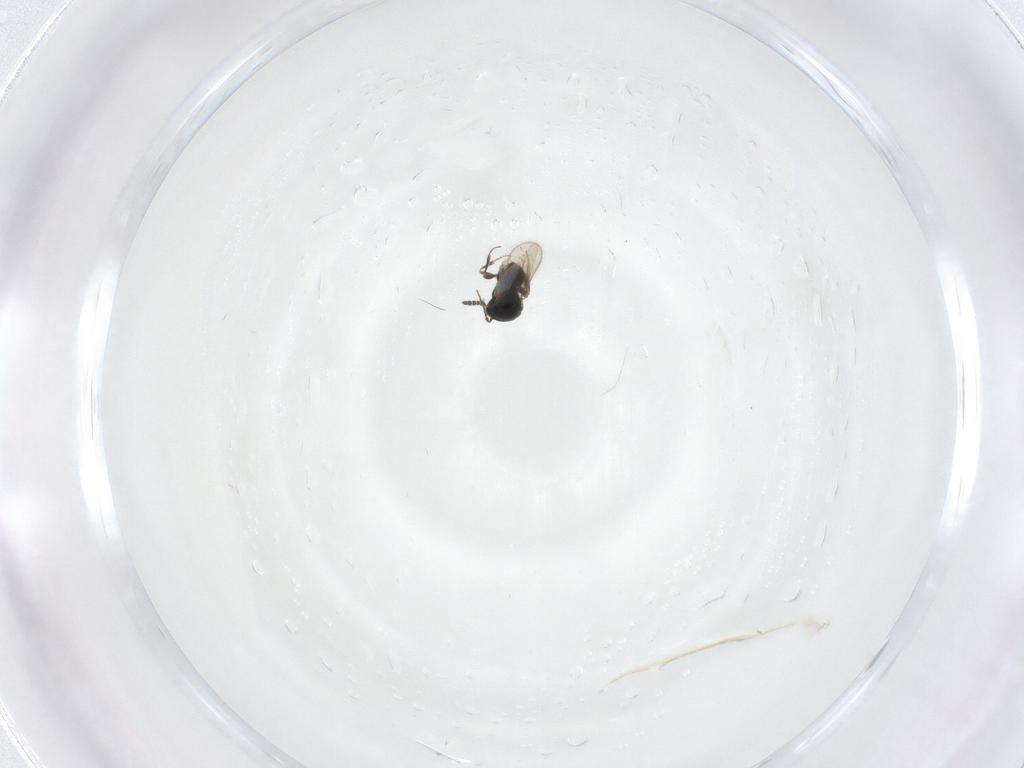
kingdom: Animalia
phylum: Arthropoda
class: Insecta
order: Hymenoptera
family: Scelionidae
